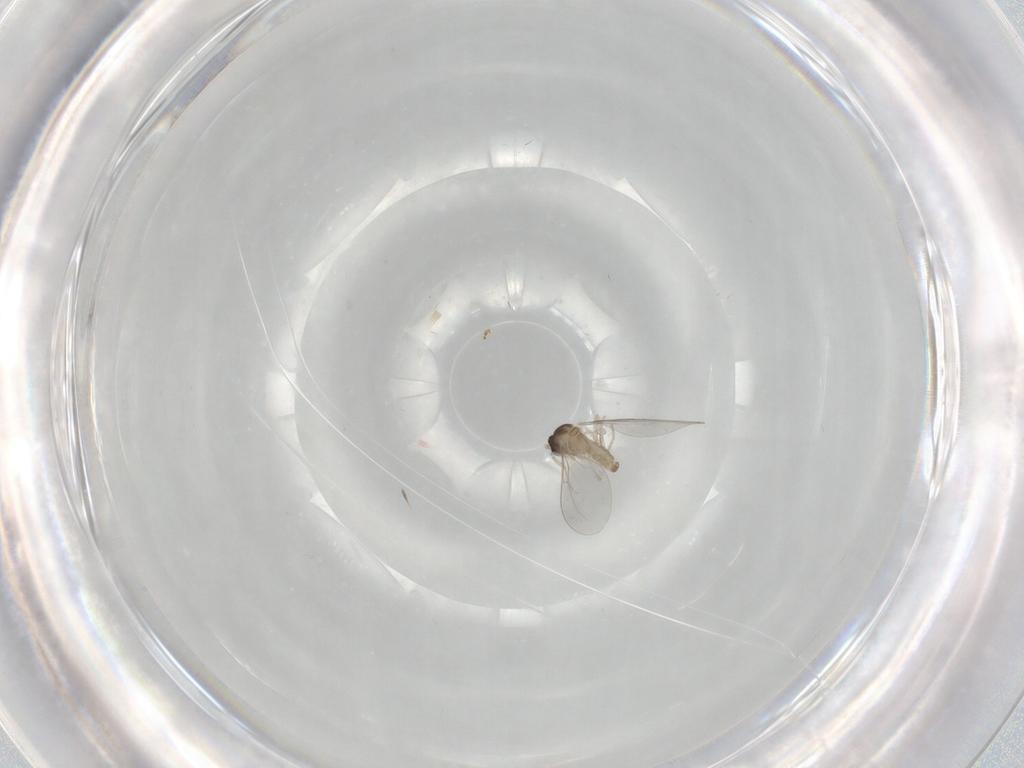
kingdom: Animalia
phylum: Arthropoda
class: Insecta
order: Diptera
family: Cecidomyiidae
